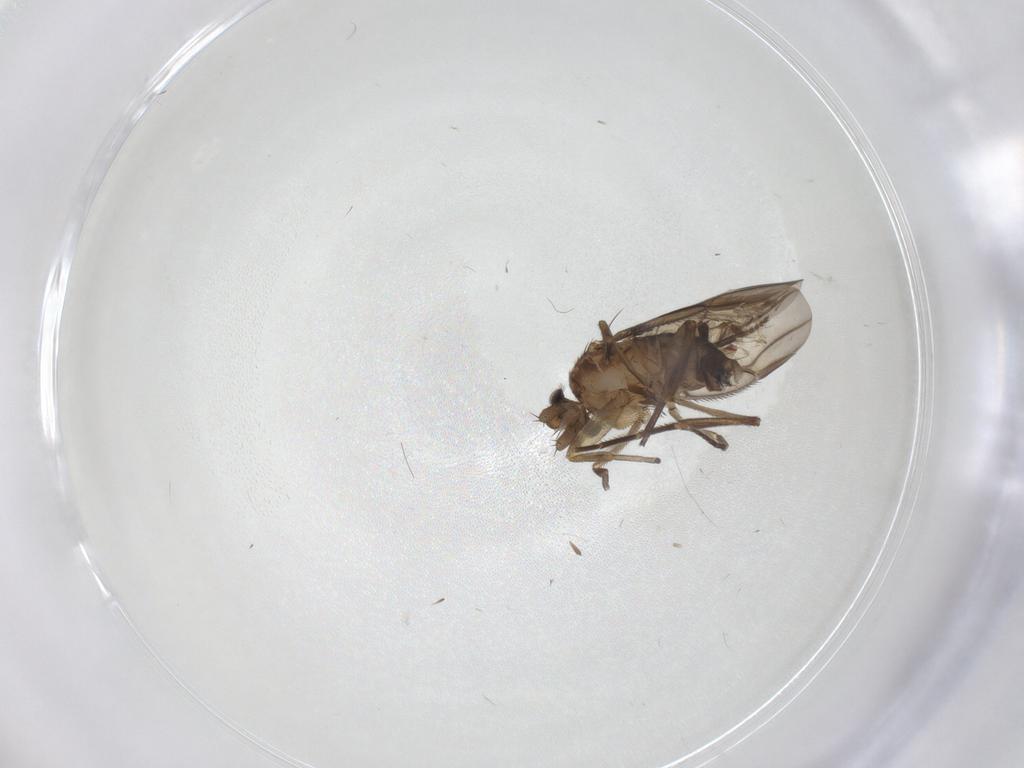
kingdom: Animalia
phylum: Arthropoda
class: Insecta
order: Diptera
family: Phoridae
